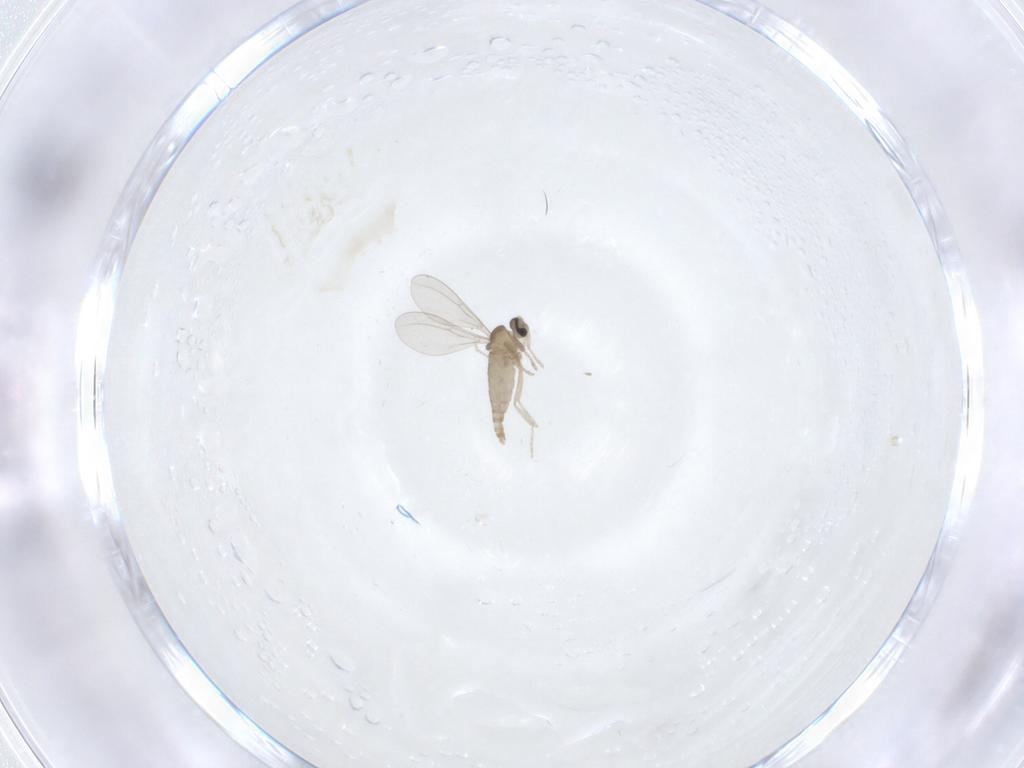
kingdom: Animalia
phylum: Arthropoda
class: Insecta
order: Diptera
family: Cecidomyiidae
